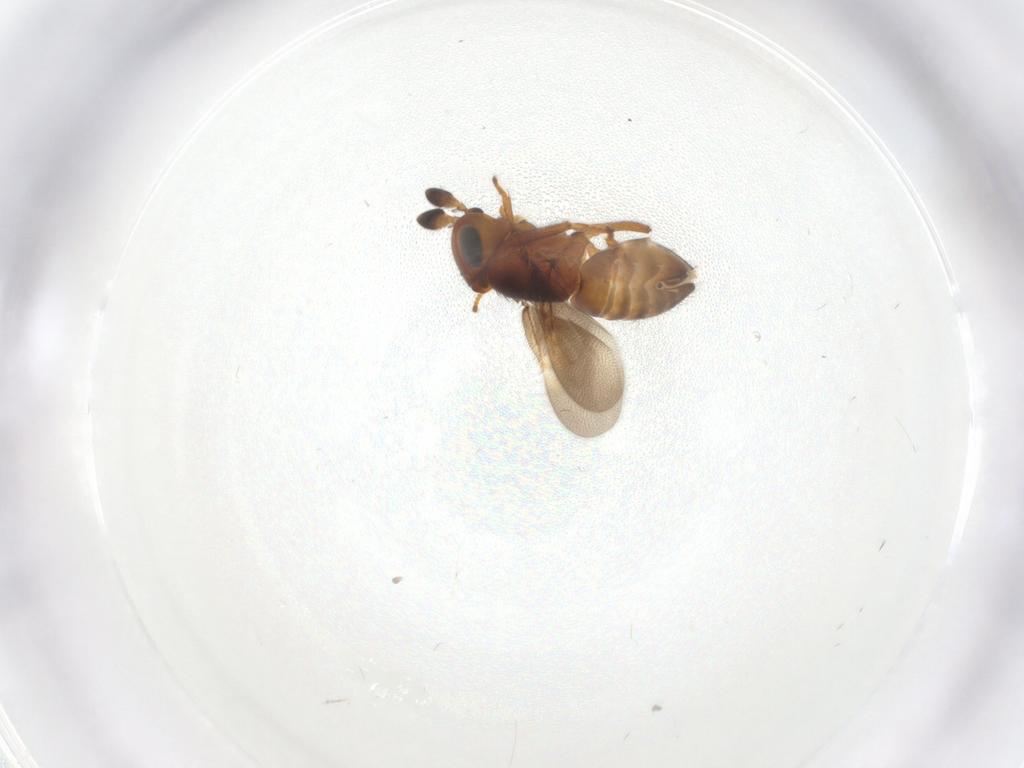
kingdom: Animalia
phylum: Arthropoda
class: Insecta
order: Hymenoptera
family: Encyrtidae
